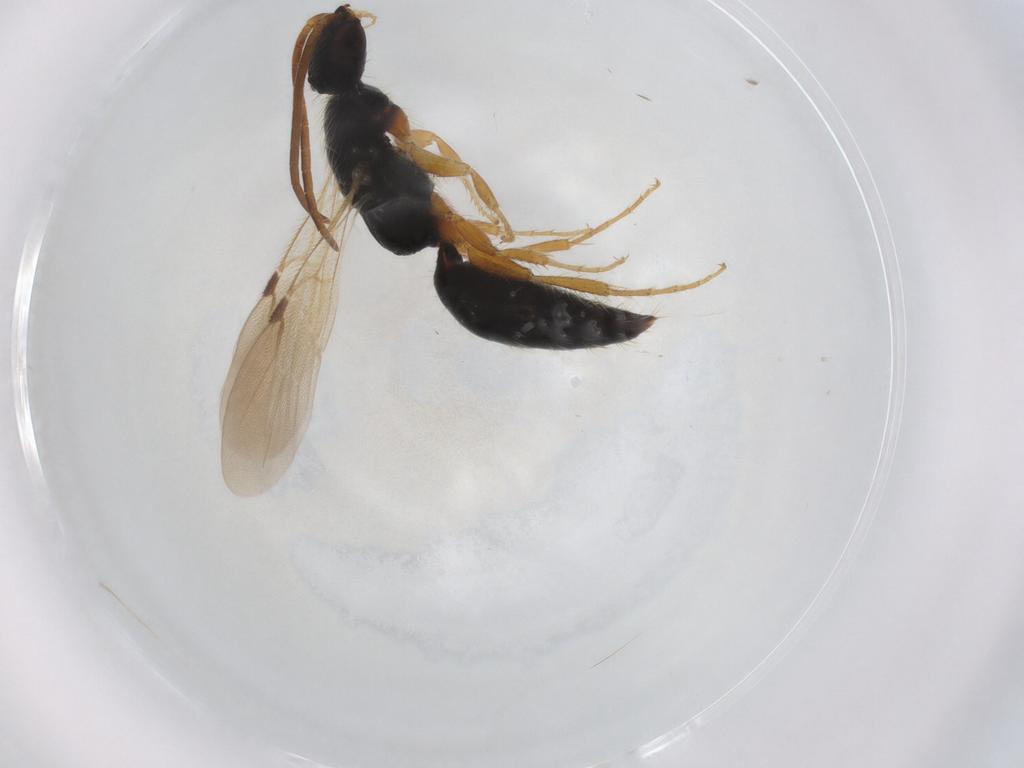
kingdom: Animalia
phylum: Arthropoda
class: Insecta
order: Hymenoptera
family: Bethylidae
